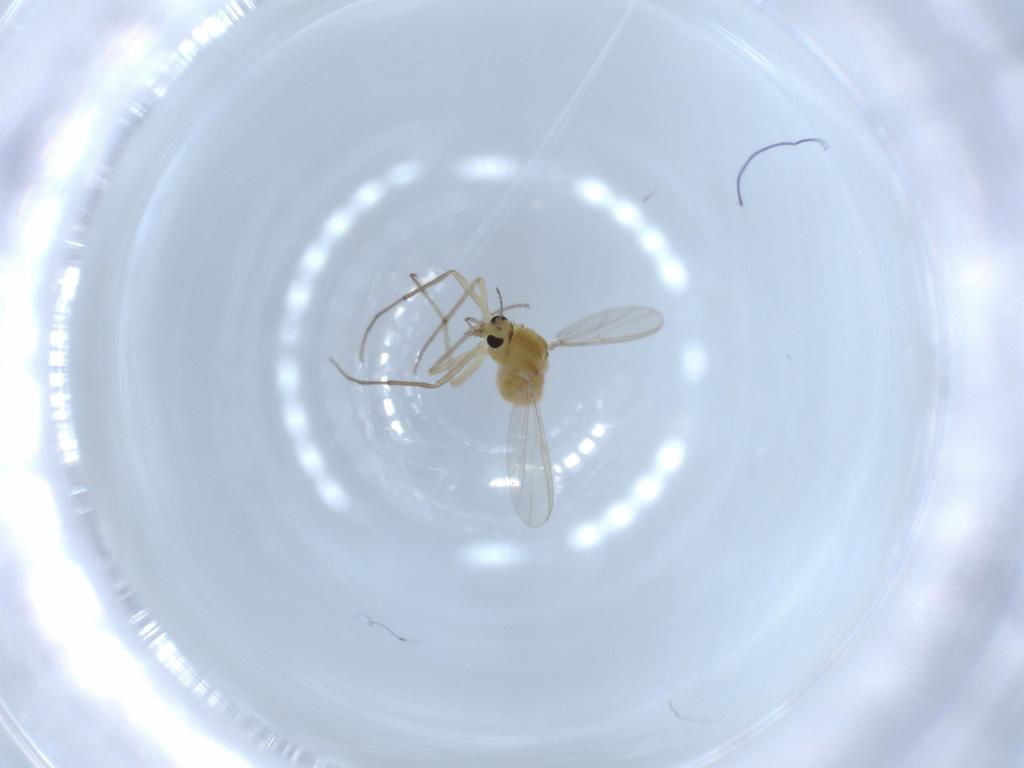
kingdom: Animalia
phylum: Arthropoda
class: Insecta
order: Diptera
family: Chironomidae
